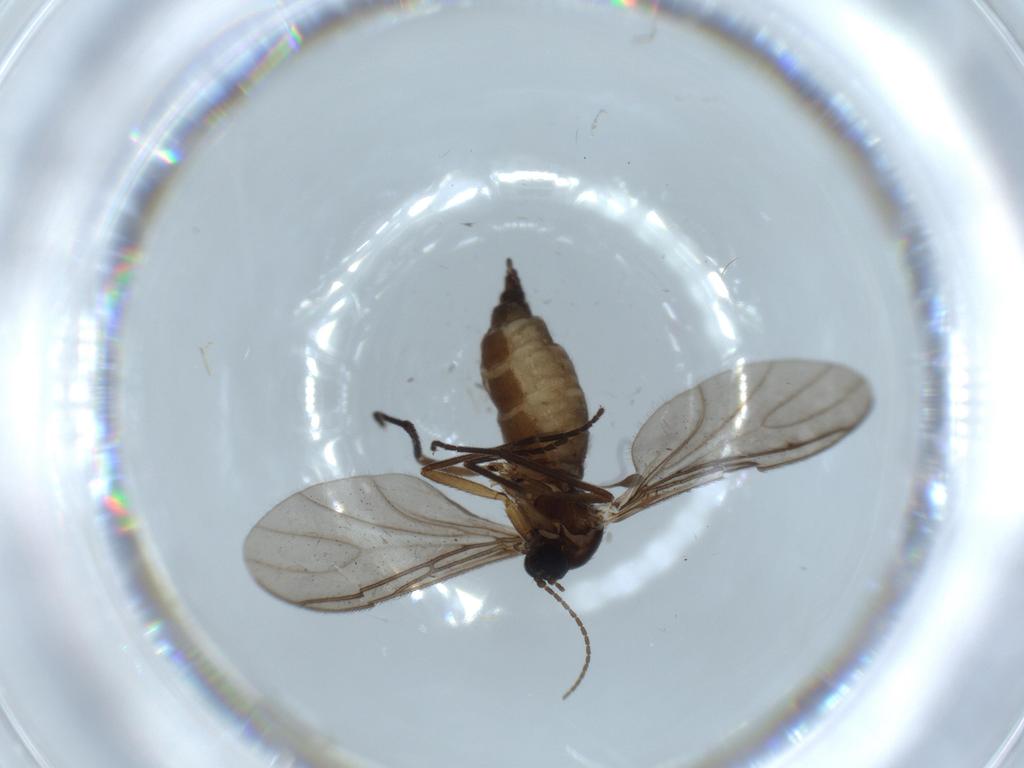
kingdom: Animalia
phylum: Arthropoda
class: Insecta
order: Diptera
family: Sciaridae
